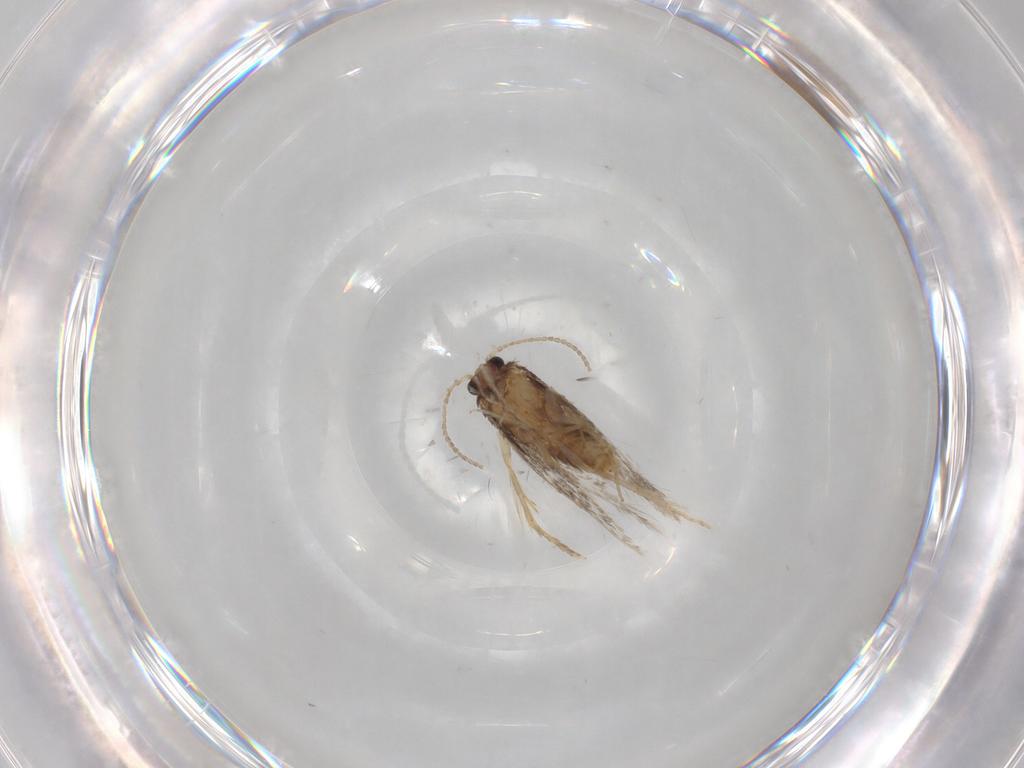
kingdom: Animalia
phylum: Arthropoda
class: Insecta
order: Lepidoptera
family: Nepticulidae
